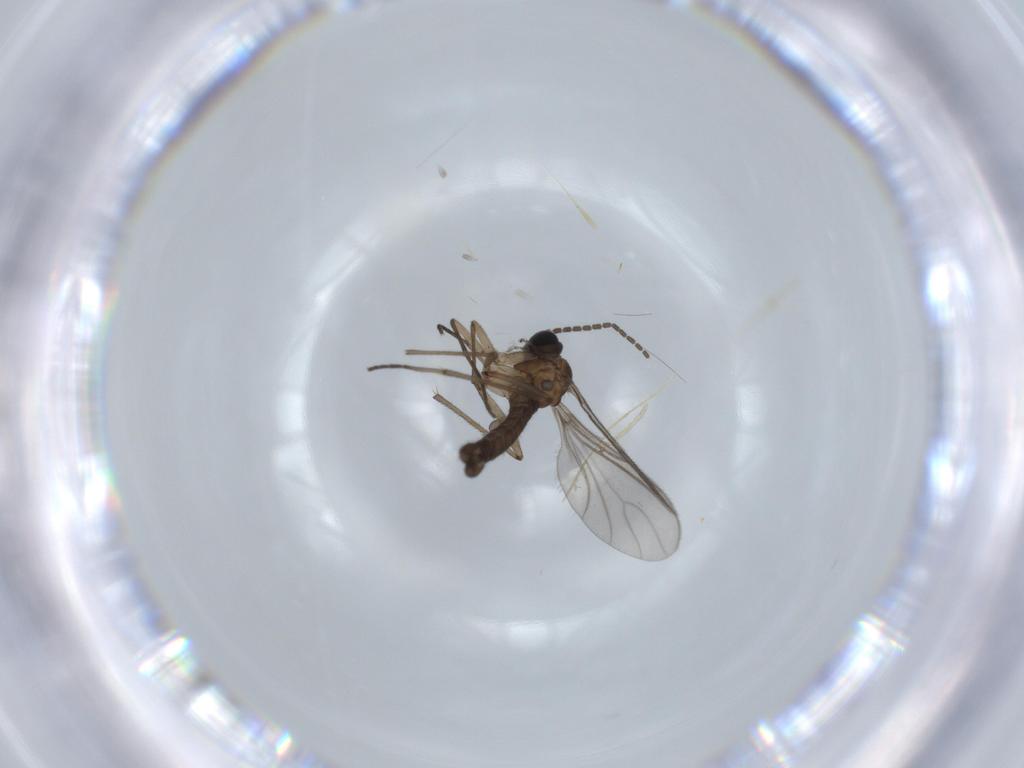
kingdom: Animalia
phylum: Arthropoda
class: Insecta
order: Diptera
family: Sciaridae
